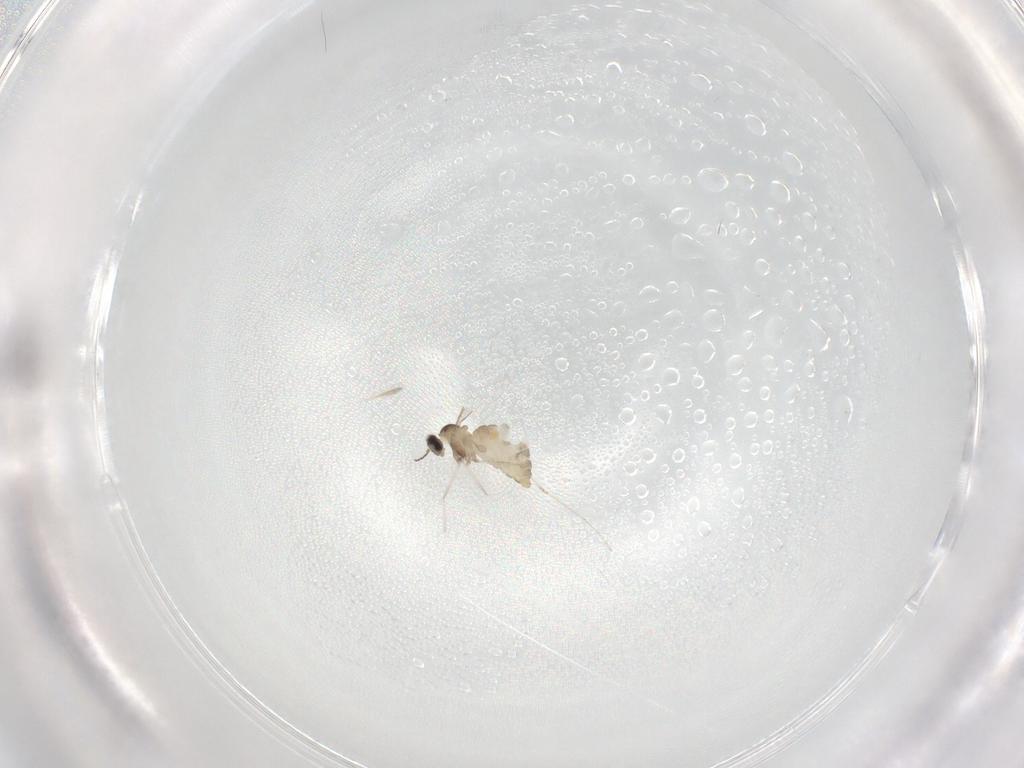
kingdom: Animalia
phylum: Arthropoda
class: Insecta
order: Diptera
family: Cecidomyiidae
